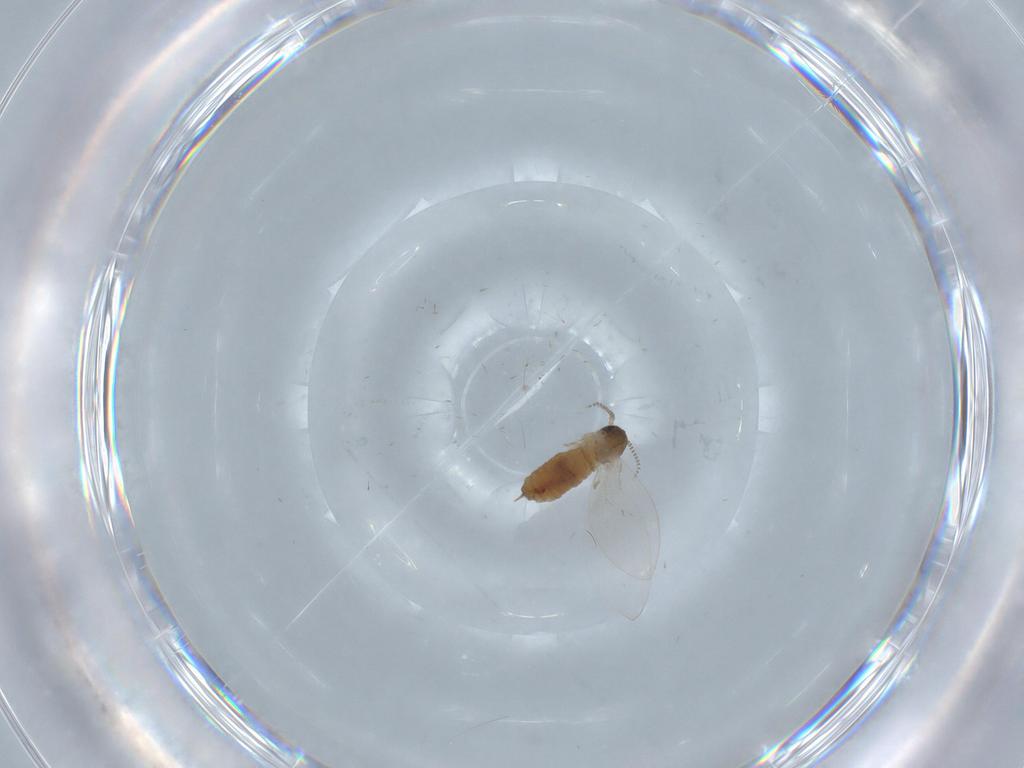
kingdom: Animalia
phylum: Arthropoda
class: Insecta
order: Diptera
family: Psychodidae
